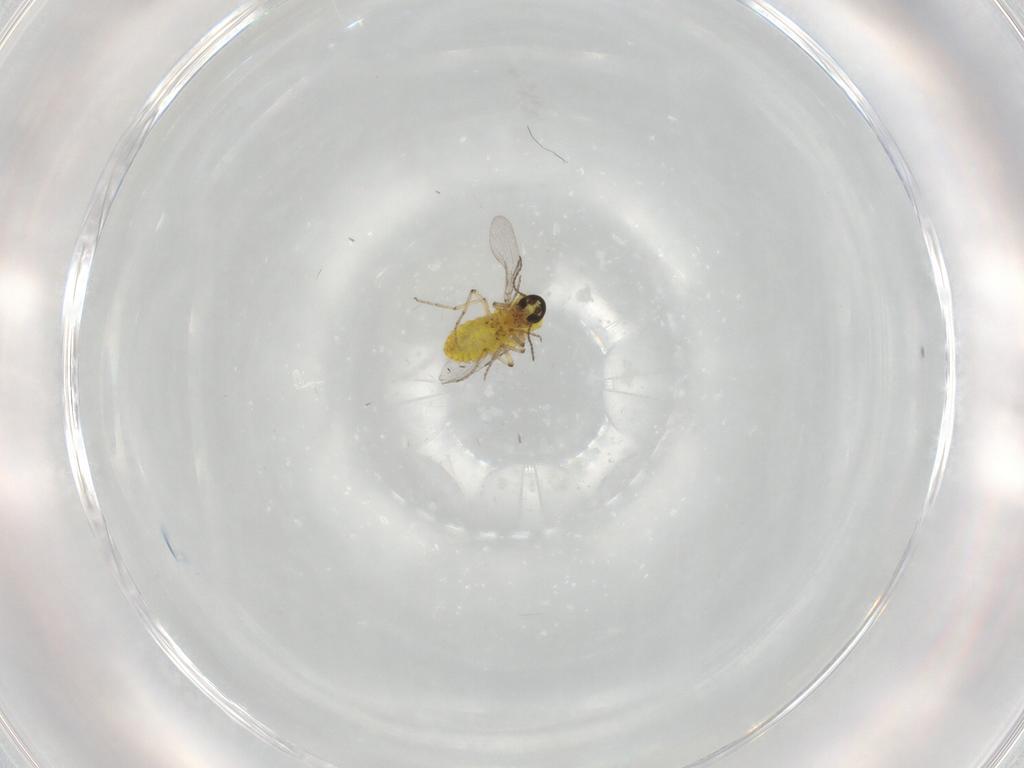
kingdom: Animalia
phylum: Arthropoda
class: Insecta
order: Diptera
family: Ceratopogonidae
